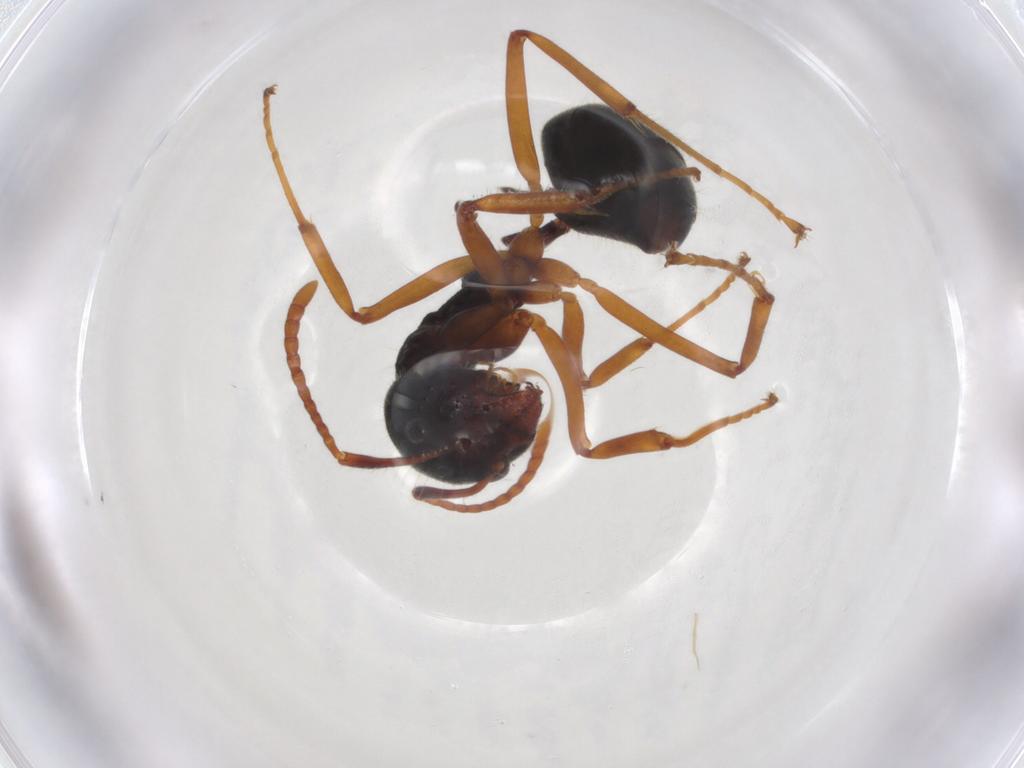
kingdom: Animalia
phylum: Arthropoda
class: Insecta
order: Hymenoptera
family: Formicidae
